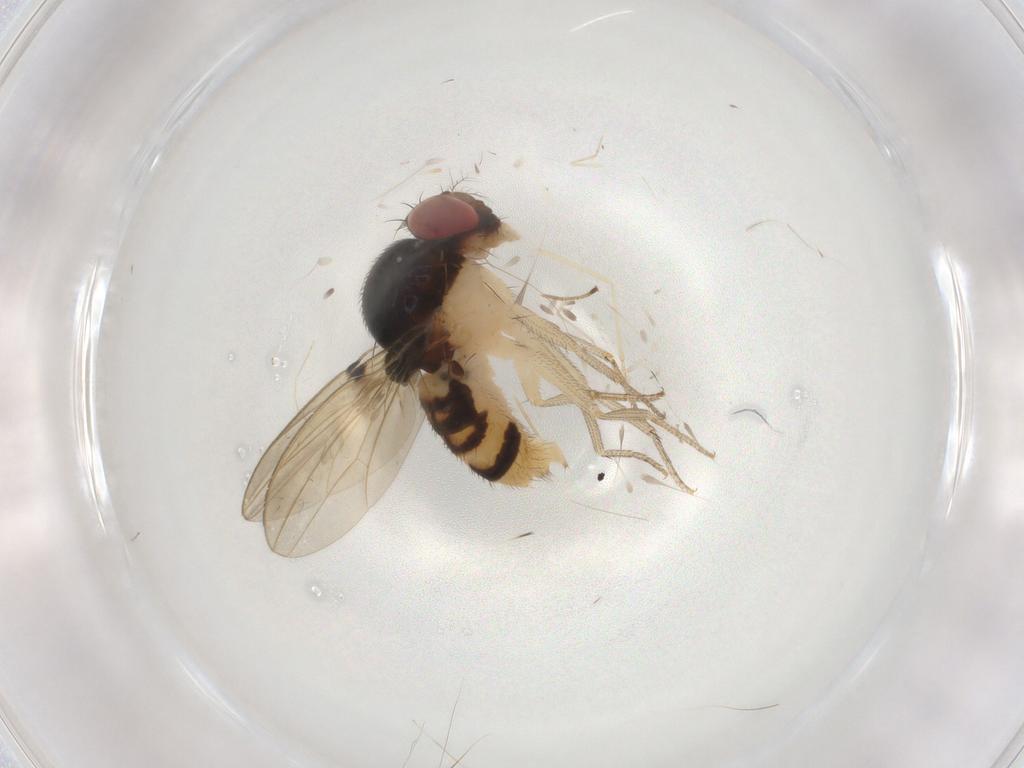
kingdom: Animalia
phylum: Arthropoda
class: Insecta
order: Diptera
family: Drosophilidae
